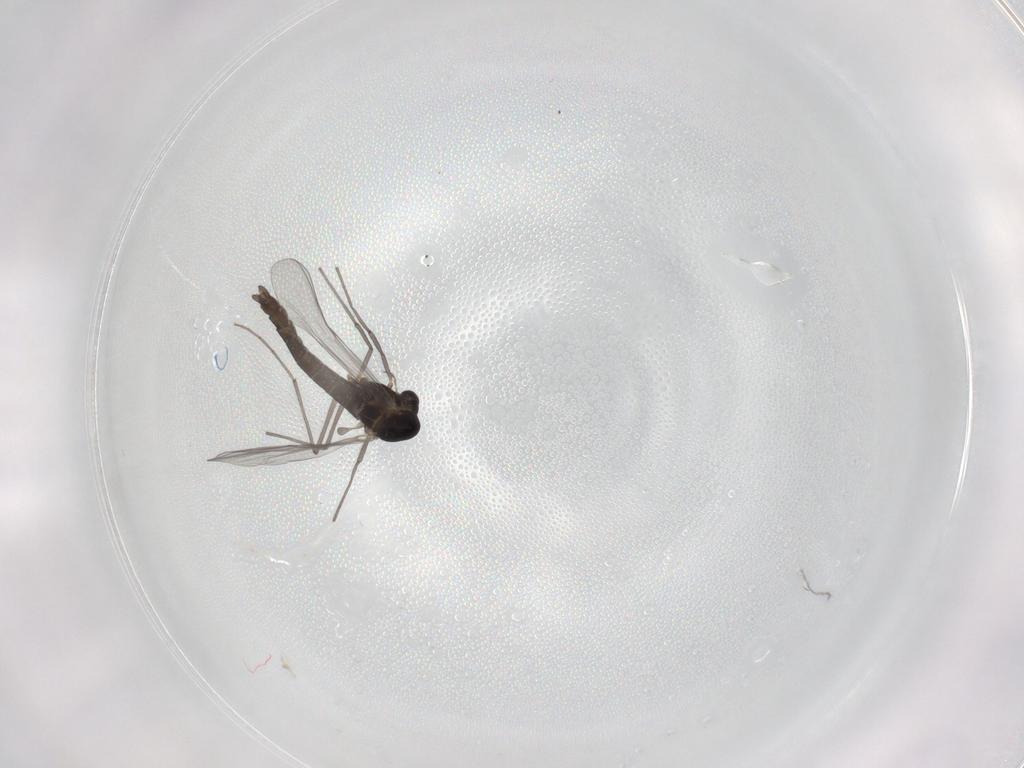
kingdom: Animalia
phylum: Arthropoda
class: Insecta
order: Diptera
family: Chironomidae
